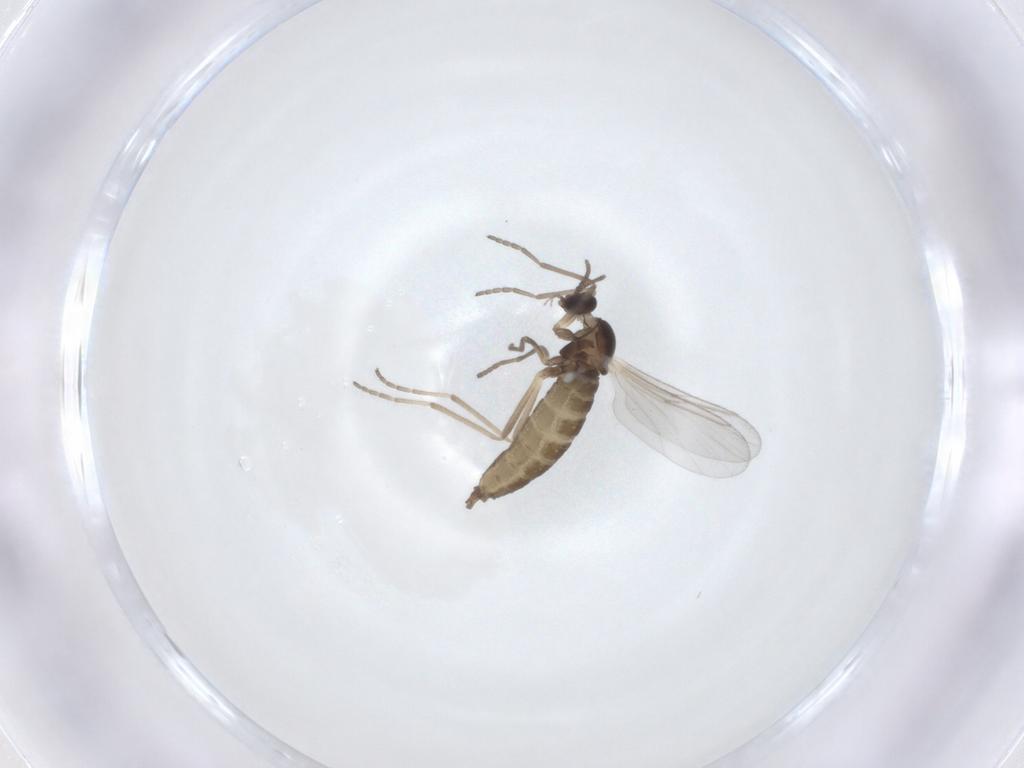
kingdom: Animalia
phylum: Arthropoda
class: Insecta
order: Diptera
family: Cecidomyiidae
